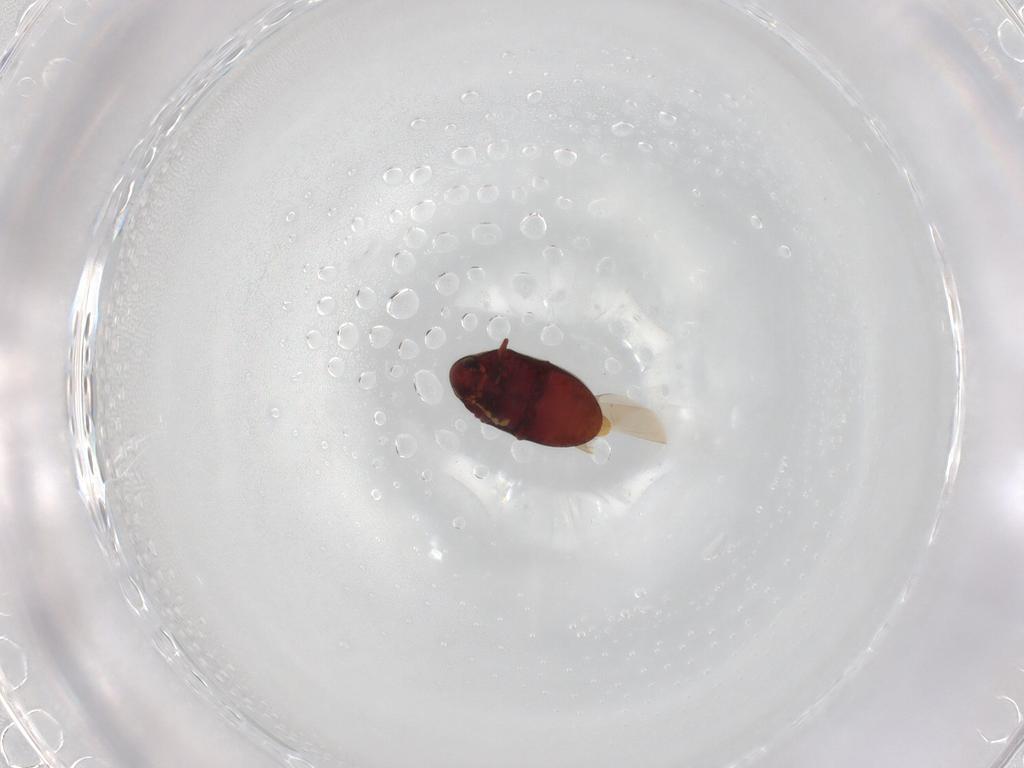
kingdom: Animalia
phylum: Arthropoda
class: Insecta
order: Coleoptera
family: Ptinidae
